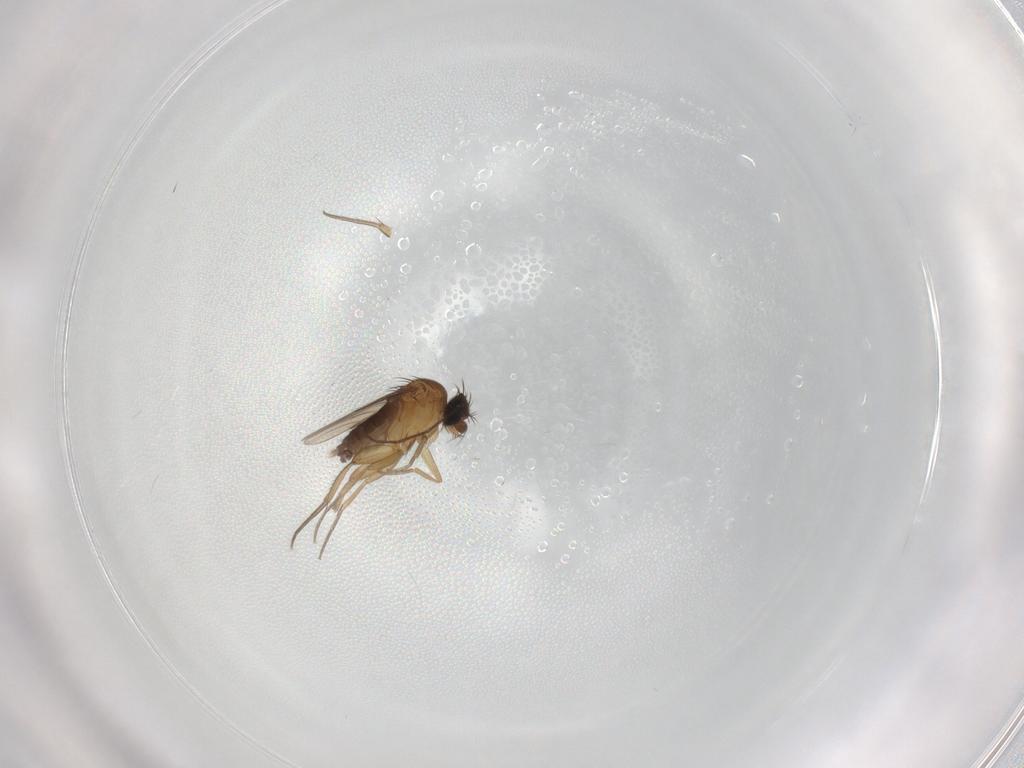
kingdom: Animalia
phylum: Arthropoda
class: Insecta
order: Diptera
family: Phoridae
